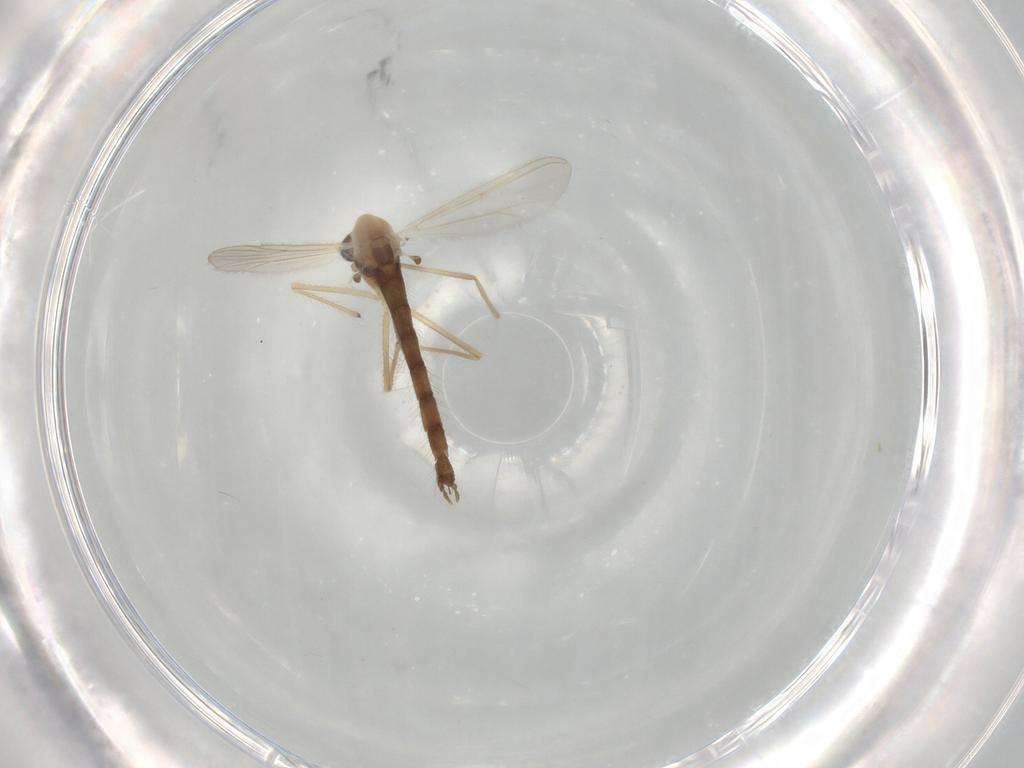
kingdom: Animalia
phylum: Arthropoda
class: Insecta
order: Diptera
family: Chironomidae
